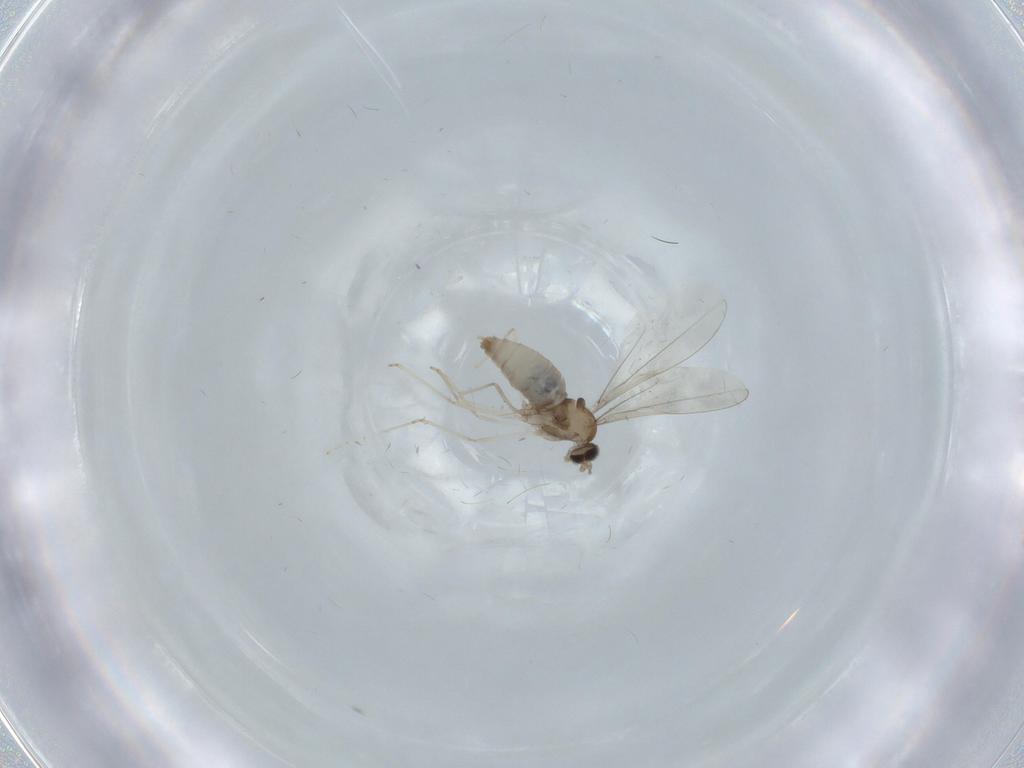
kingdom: Animalia
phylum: Arthropoda
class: Insecta
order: Diptera
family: Cecidomyiidae
